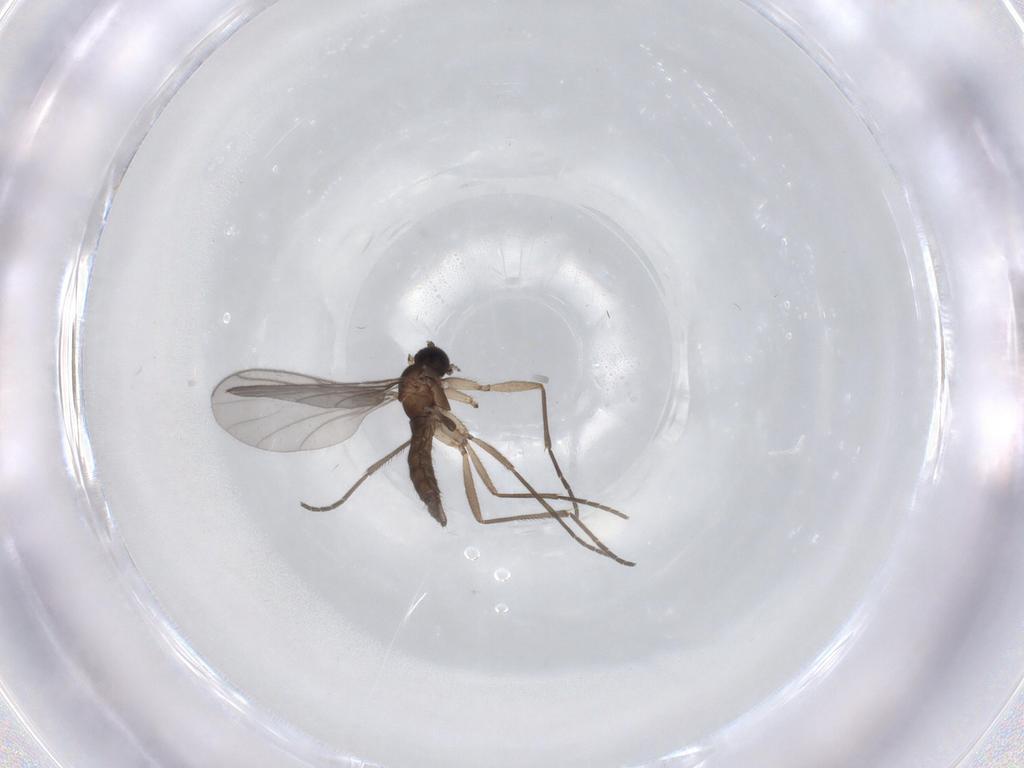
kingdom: Animalia
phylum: Arthropoda
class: Insecta
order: Diptera
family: Sciaridae
